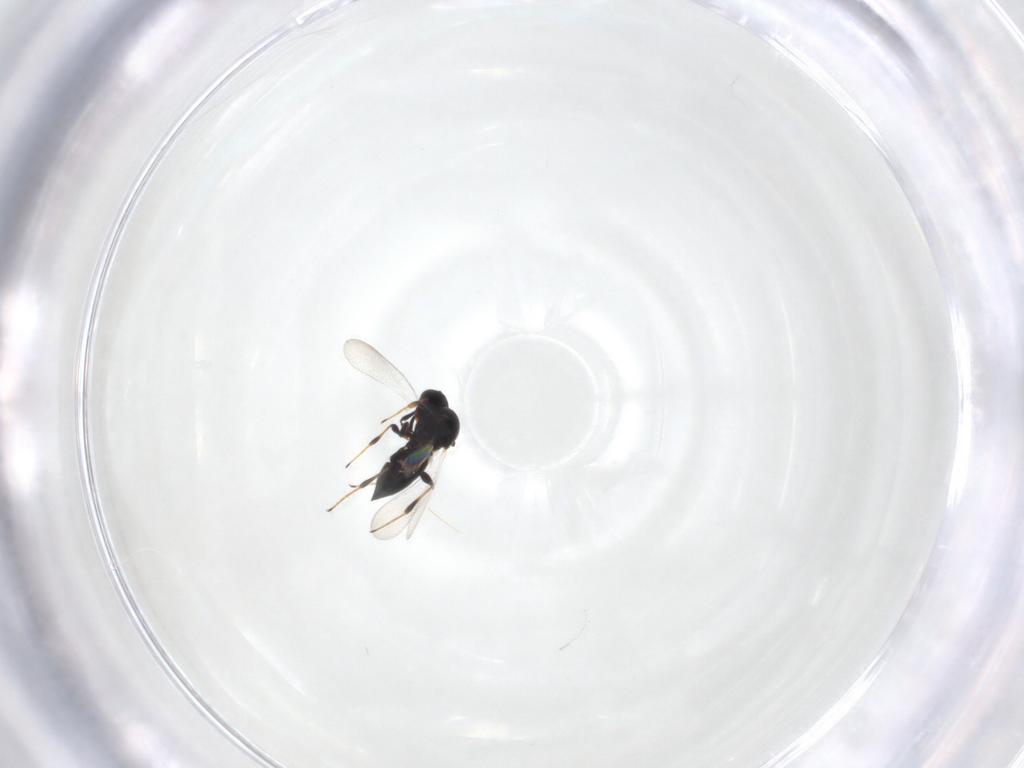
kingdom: Animalia
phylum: Arthropoda
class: Insecta
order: Hymenoptera
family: Platygastridae
